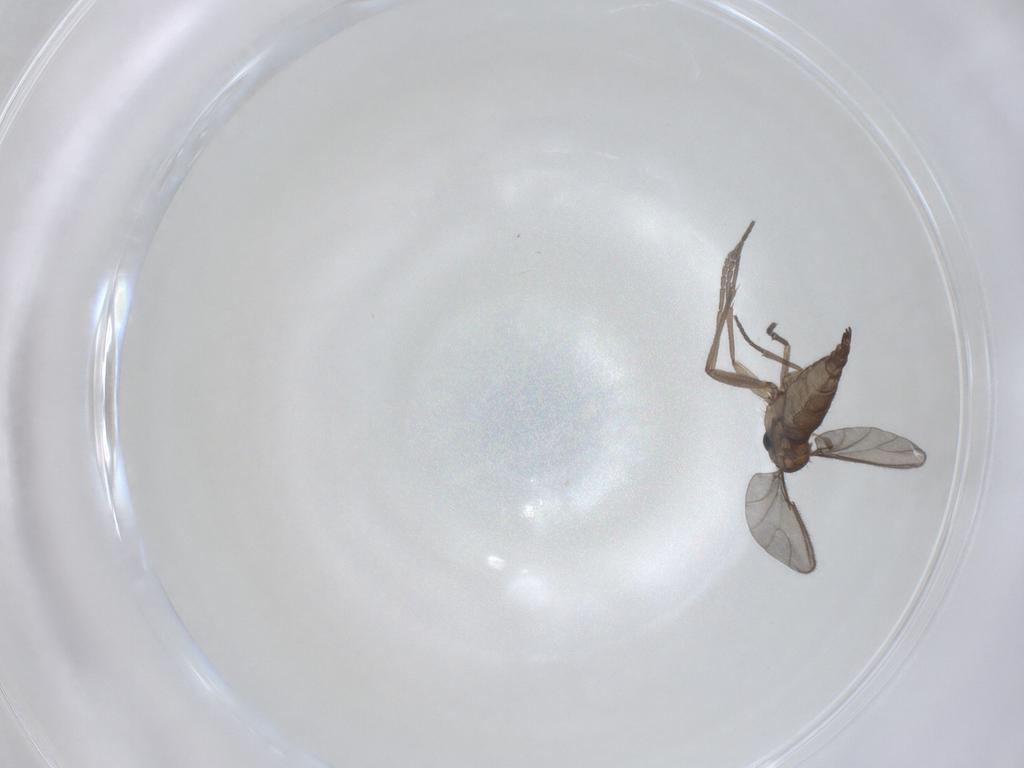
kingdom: Animalia
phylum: Arthropoda
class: Insecta
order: Diptera
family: Sciaridae
